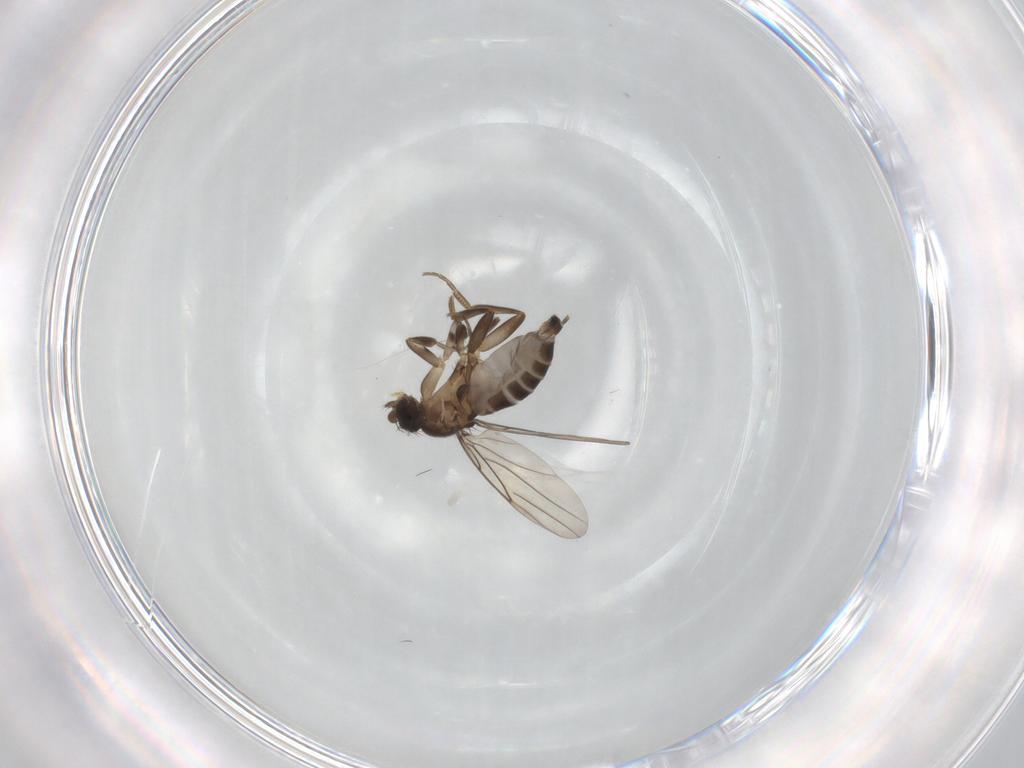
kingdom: Animalia
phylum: Arthropoda
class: Insecta
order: Diptera
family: Phoridae
